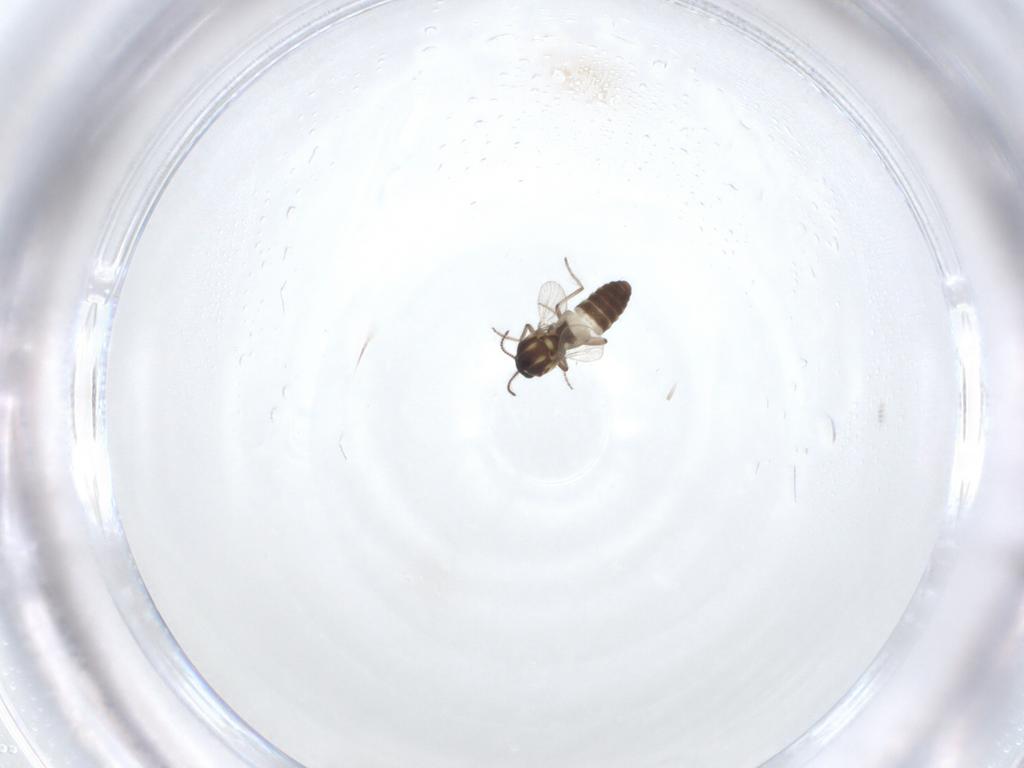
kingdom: Animalia
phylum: Arthropoda
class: Insecta
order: Diptera
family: Ceratopogonidae
